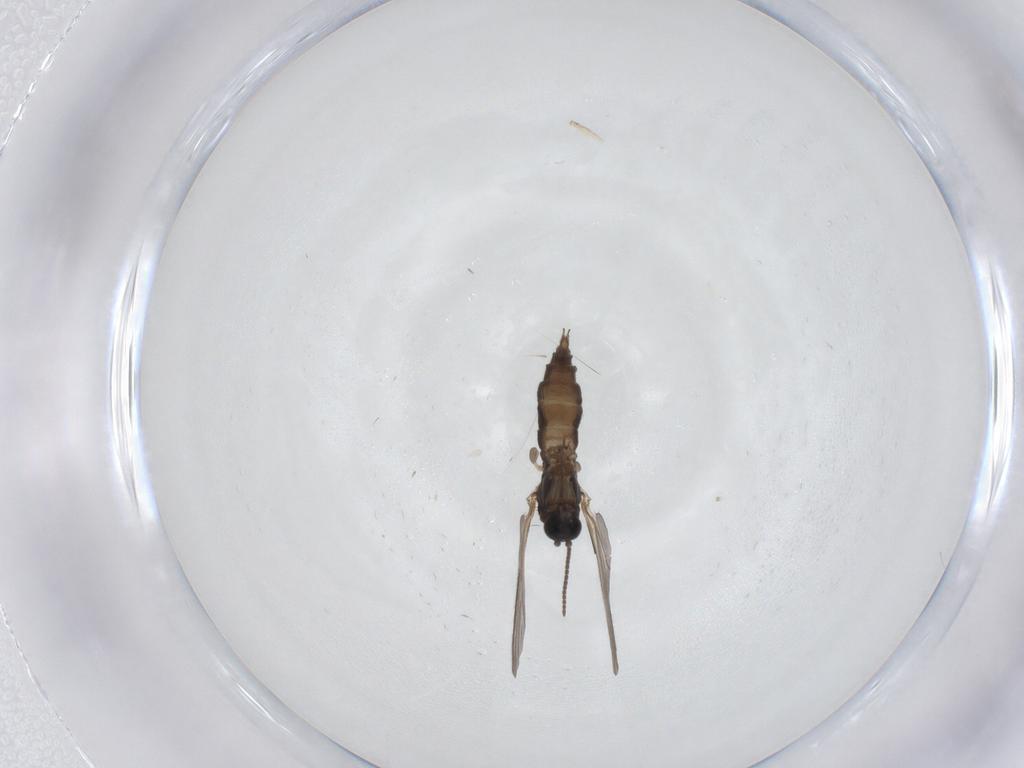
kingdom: Animalia
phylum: Arthropoda
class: Insecta
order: Diptera
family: Sciaridae
